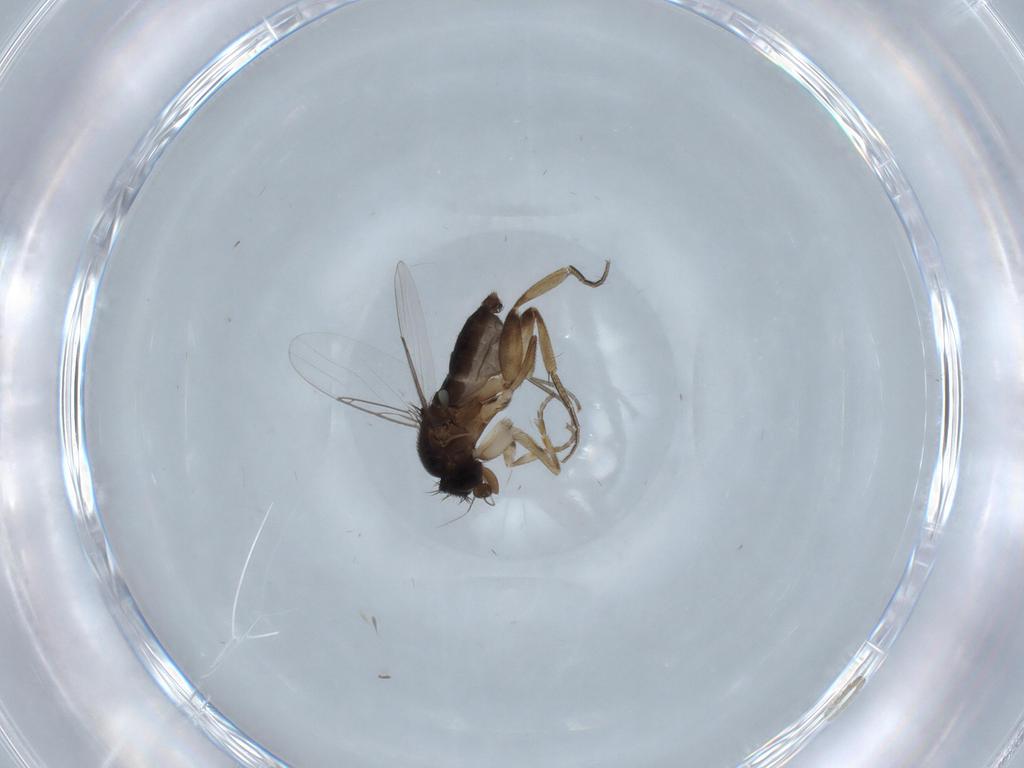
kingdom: Animalia
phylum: Arthropoda
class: Insecta
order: Diptera
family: Phoridae
